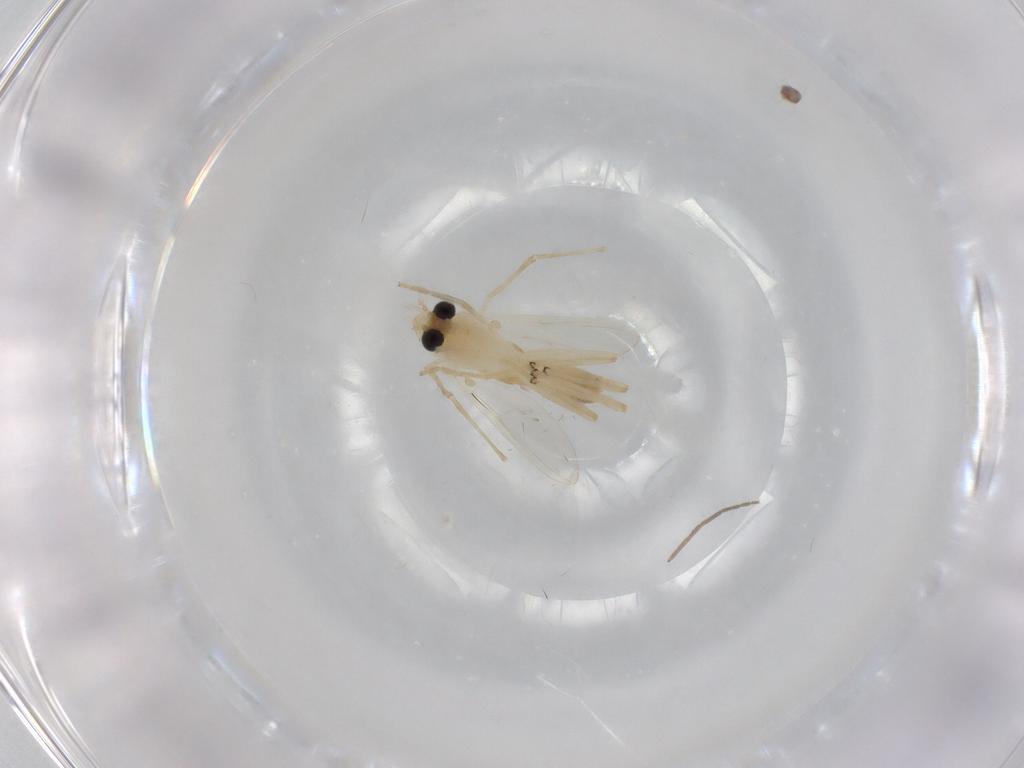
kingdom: Animalia
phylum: Arthropoda
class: Insecta
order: Diptera
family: Chironomidae
